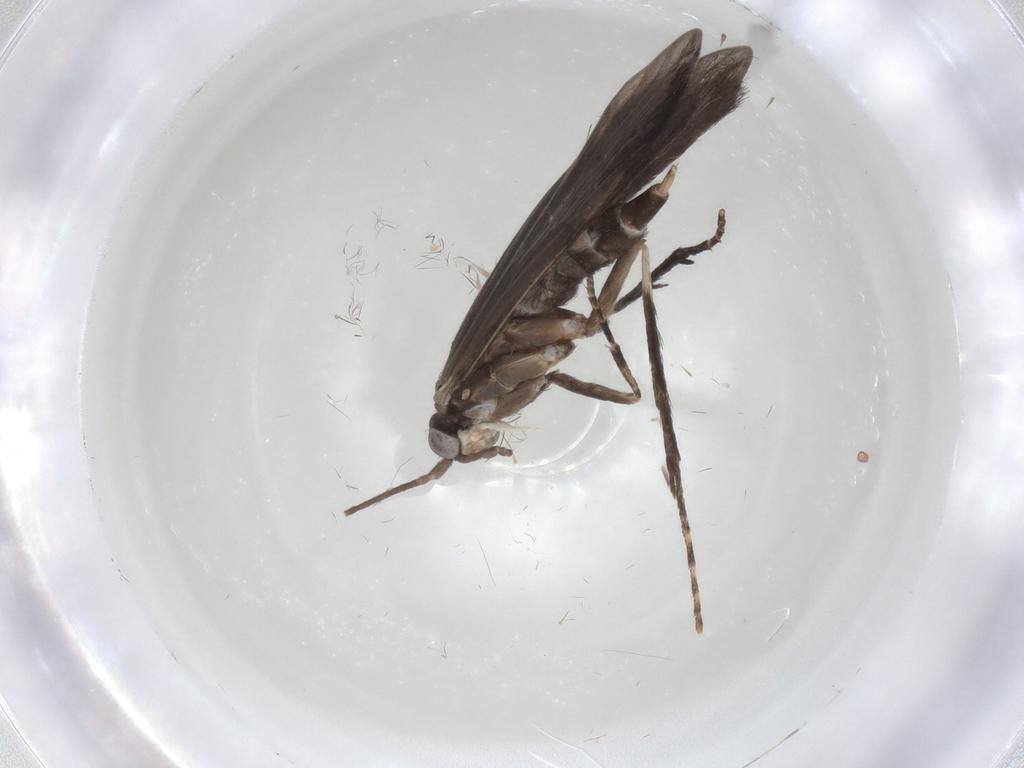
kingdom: Animalia
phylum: Arthropoda
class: Insecta
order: Trichoptera
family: Xiphocentronidae
